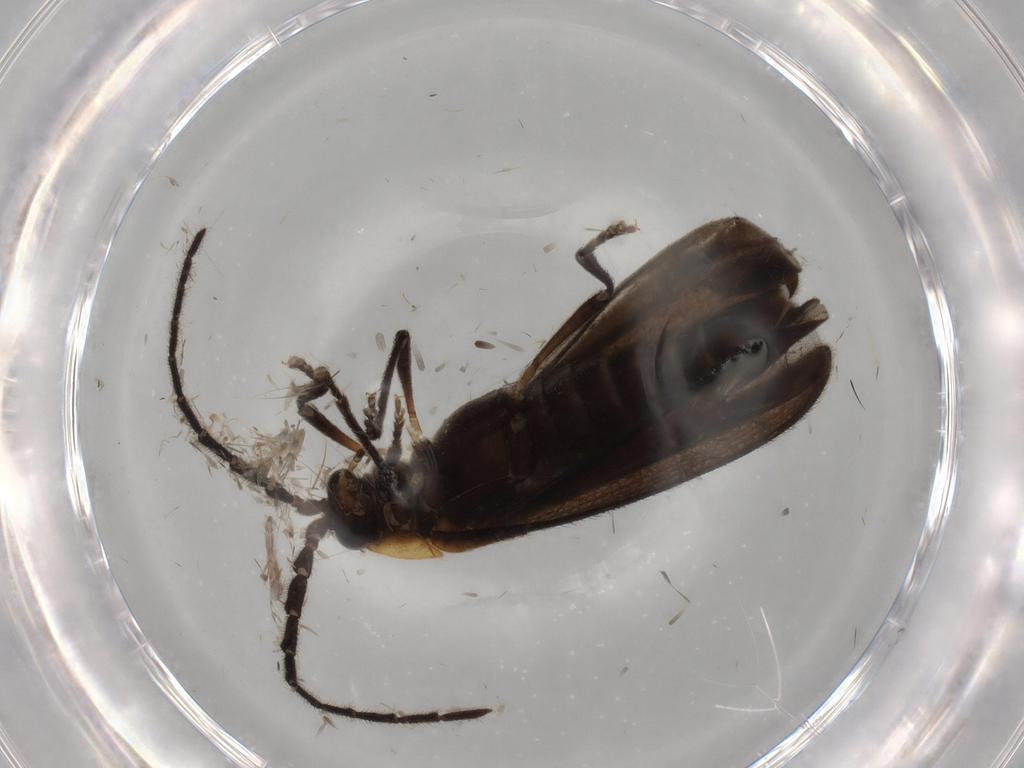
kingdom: Animalia
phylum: Arthropoda
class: Insecta
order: Coleoptera
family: Lycidae
